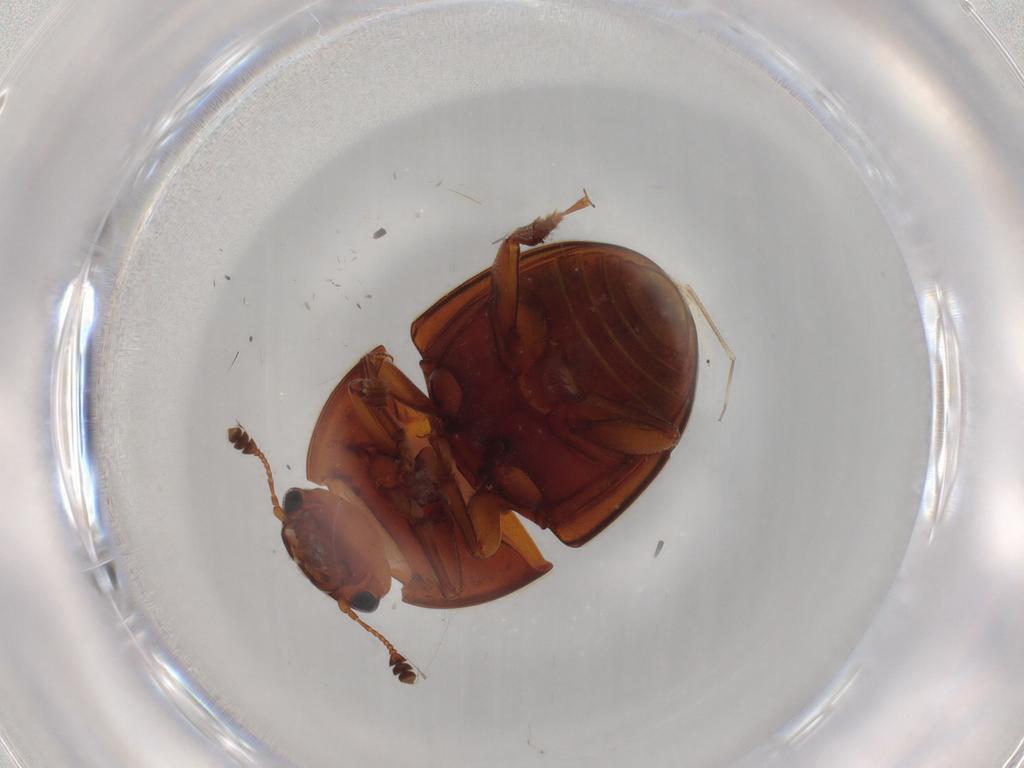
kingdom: Animalia
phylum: Arthropoda
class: Insecta
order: Coleoptera
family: Nitidulidae
